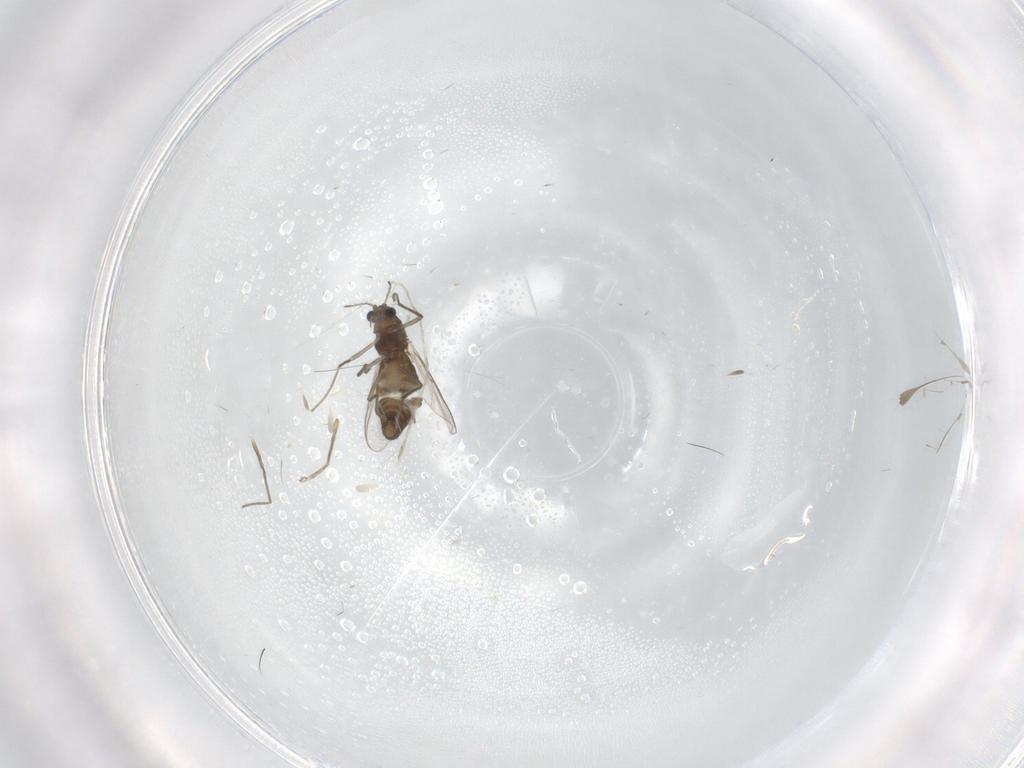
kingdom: Animalia
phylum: Arthropoda
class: Insecta
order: Diptera
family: Chironomidae
